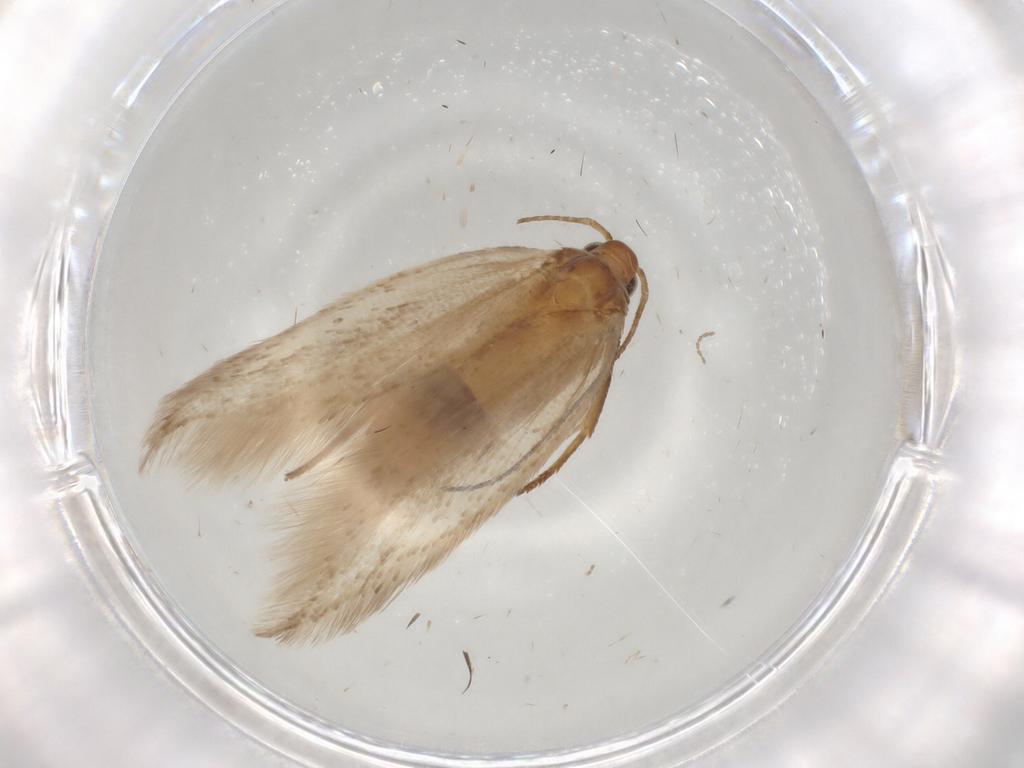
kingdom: Animalia
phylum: Arthropoda
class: Insecta
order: Lepidoptera
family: Gelechiidae
